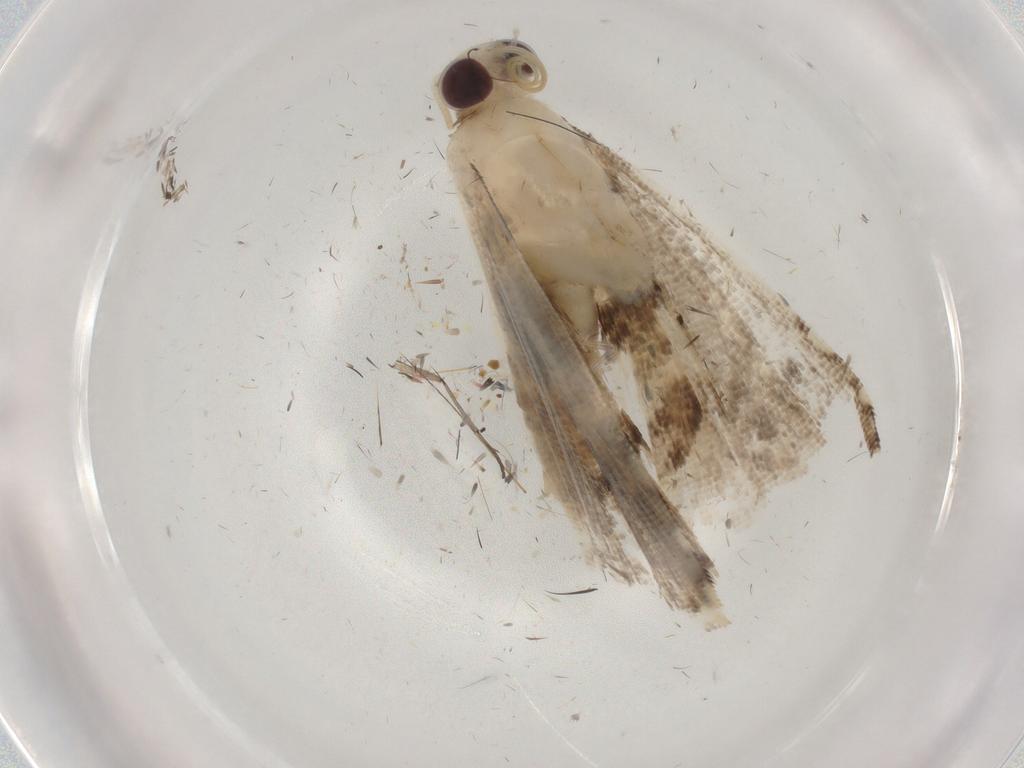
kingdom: Animalia
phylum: Arthropoda
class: Insecta
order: Lepidoptera
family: Crambidae
